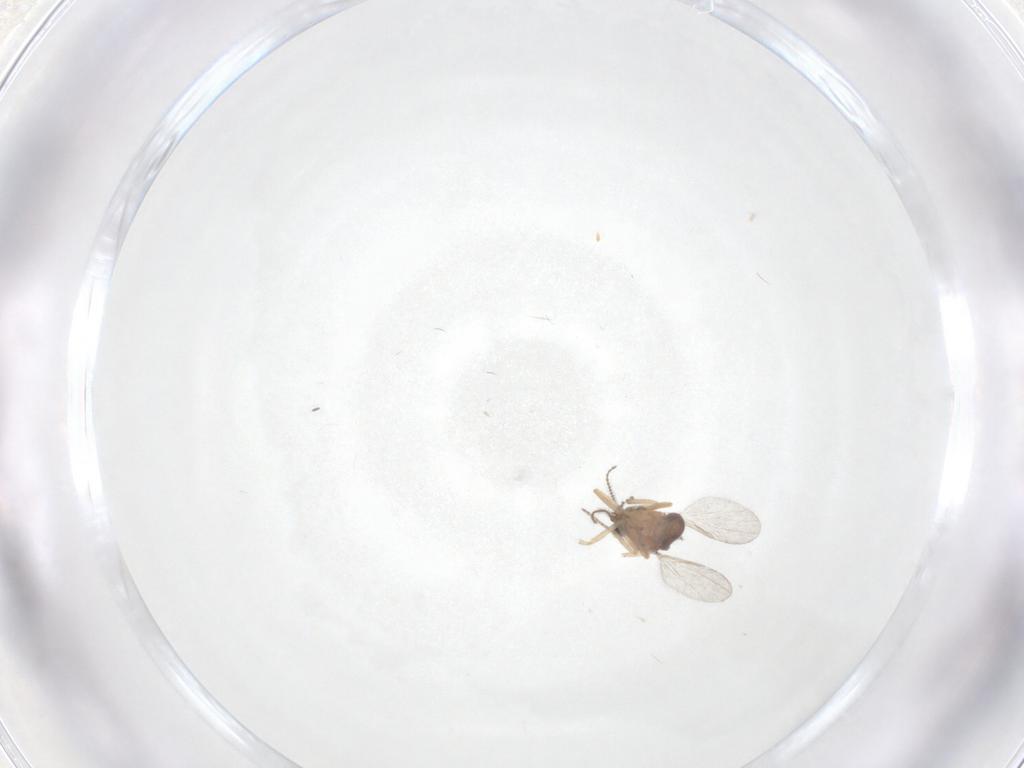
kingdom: Animalia
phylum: Arthropoda
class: Insecta
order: Diptera
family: Ceratopogonidae
